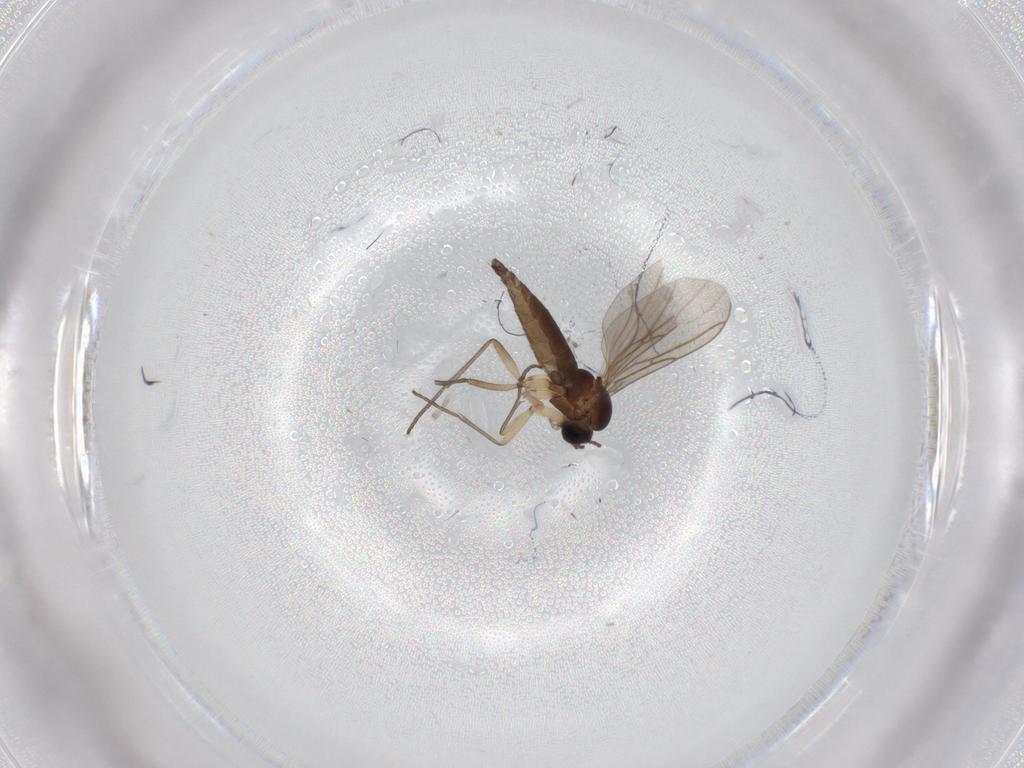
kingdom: Animalia
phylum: Arthropoda
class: Insecta
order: Diptera
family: Sciaridae
